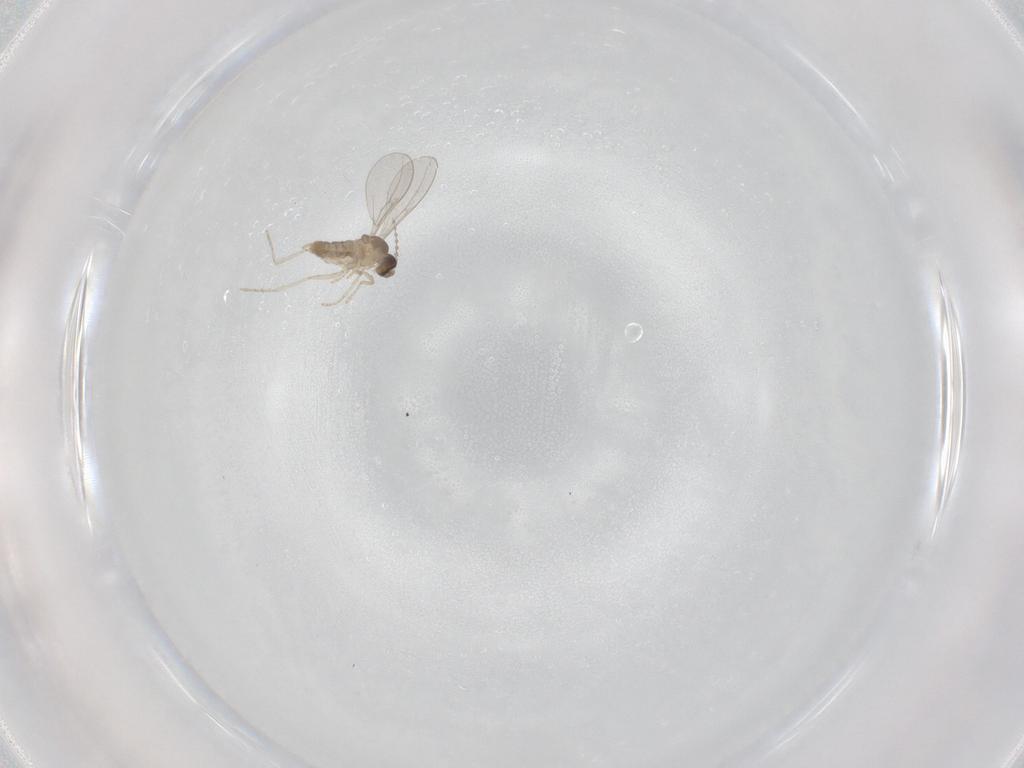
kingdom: Animalia
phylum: Arthropoda
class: Insecta
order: Diptera
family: Cecidomyiidae
